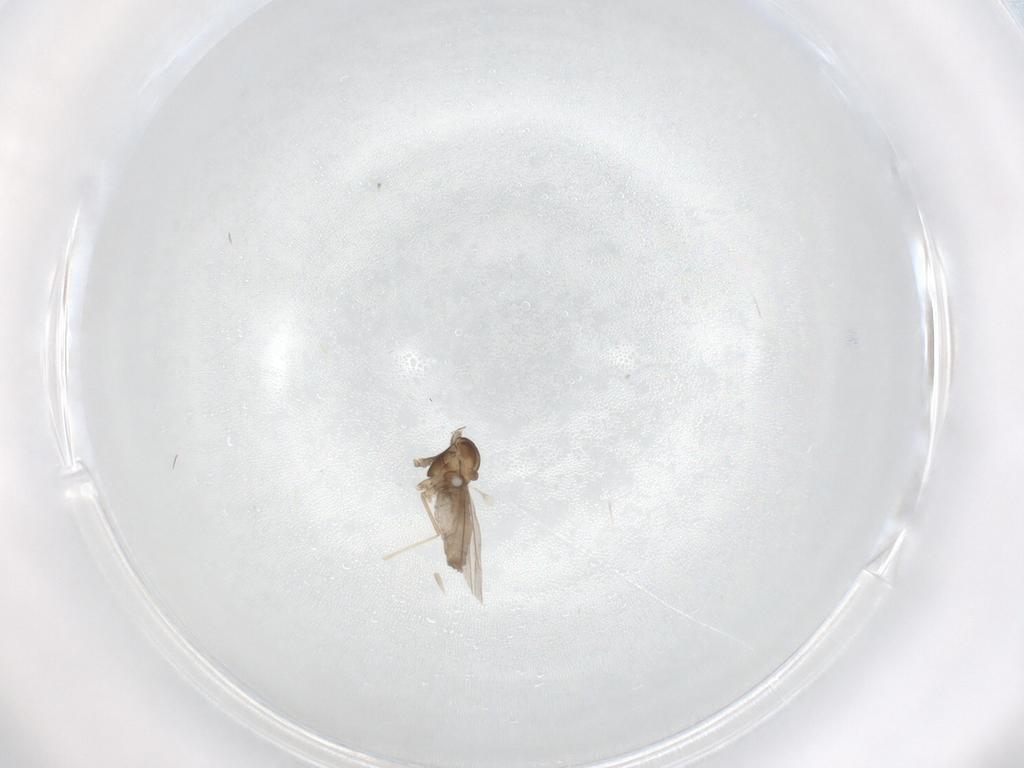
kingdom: Animalia
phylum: Arthropoda
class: Insecta
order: Diptera
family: Cecidomyiidae
